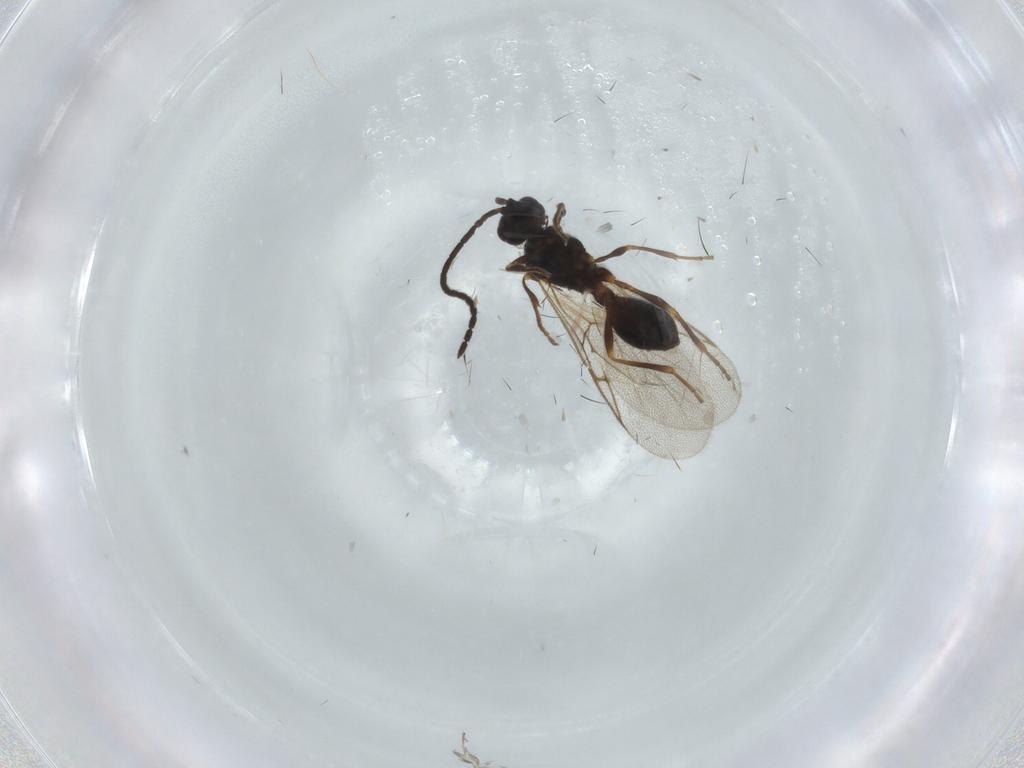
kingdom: Animalia
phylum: Arthropoda
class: Insecta
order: Hymenoptera
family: Diapriidae
